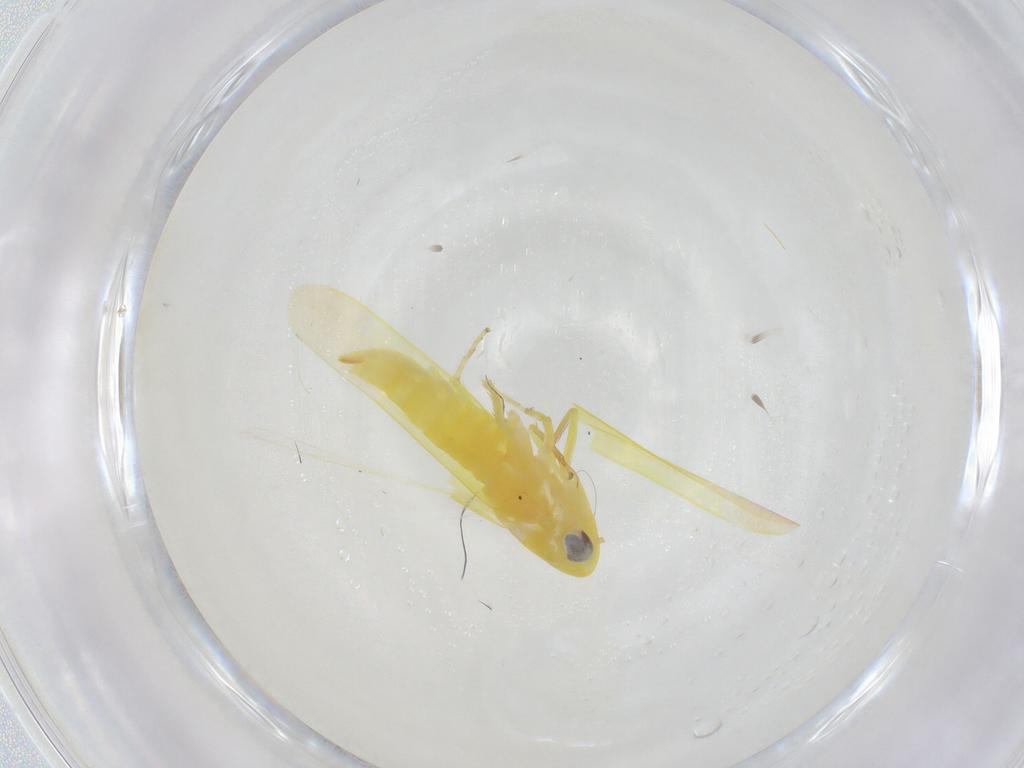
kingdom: Animalia
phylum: Arthropoda
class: Insecta
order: Hemiptera
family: Cicadellidae
